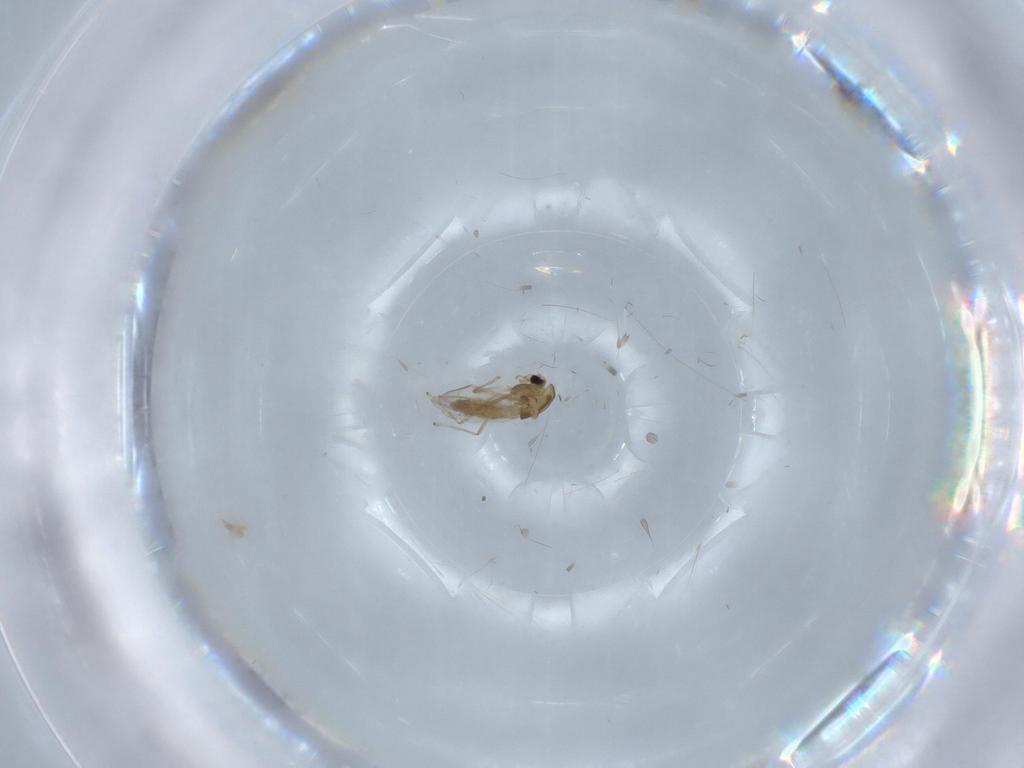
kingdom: Animalia
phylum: Arthropoda
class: Insecta
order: Diptera
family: Chironomidae
